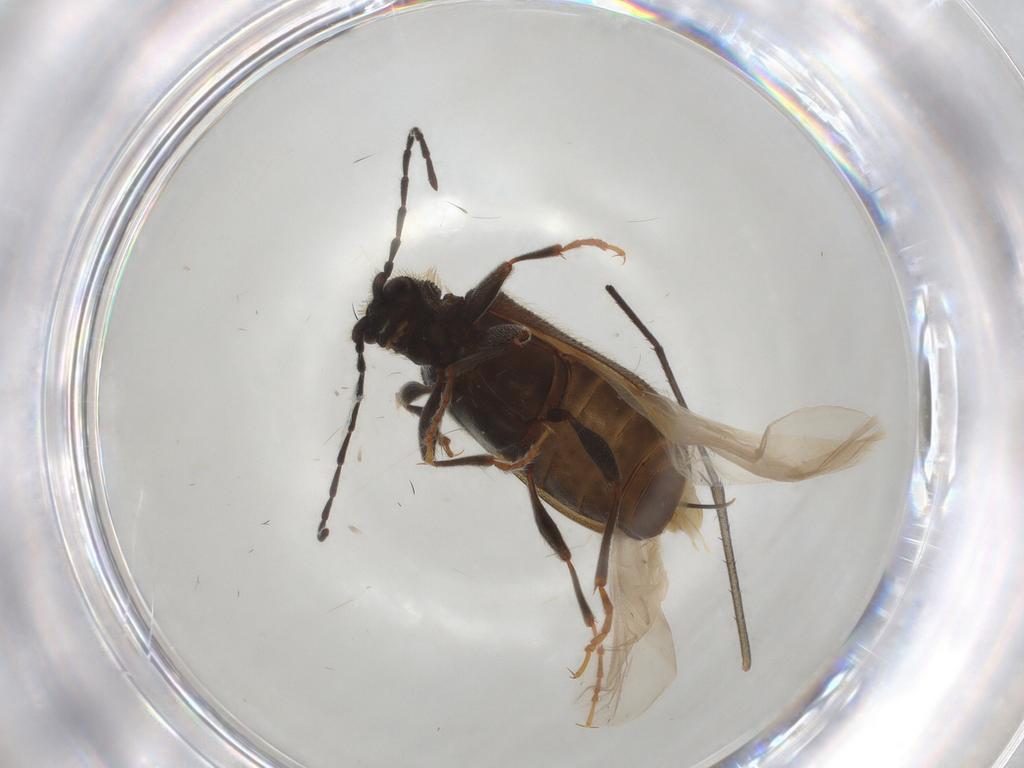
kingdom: Animalia
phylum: Arthropoda
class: Insecta
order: Coleoptera
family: Ptinidae
